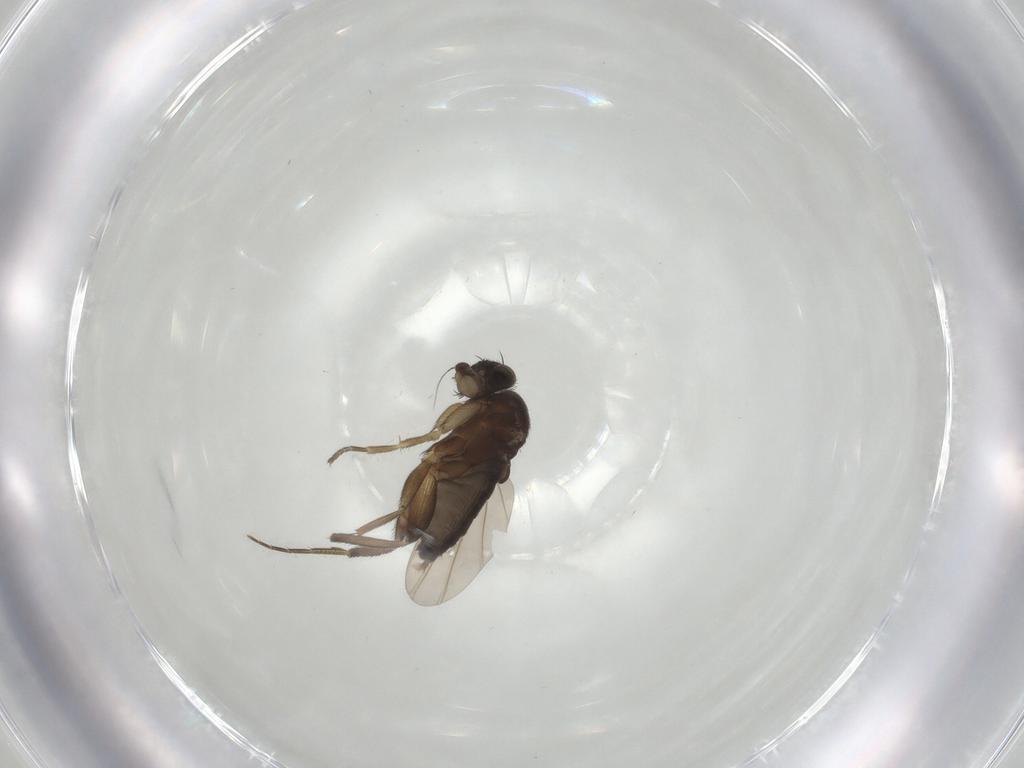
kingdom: Animalia
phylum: Arthropoda
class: Insecta
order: Diptera
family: Phoridae
